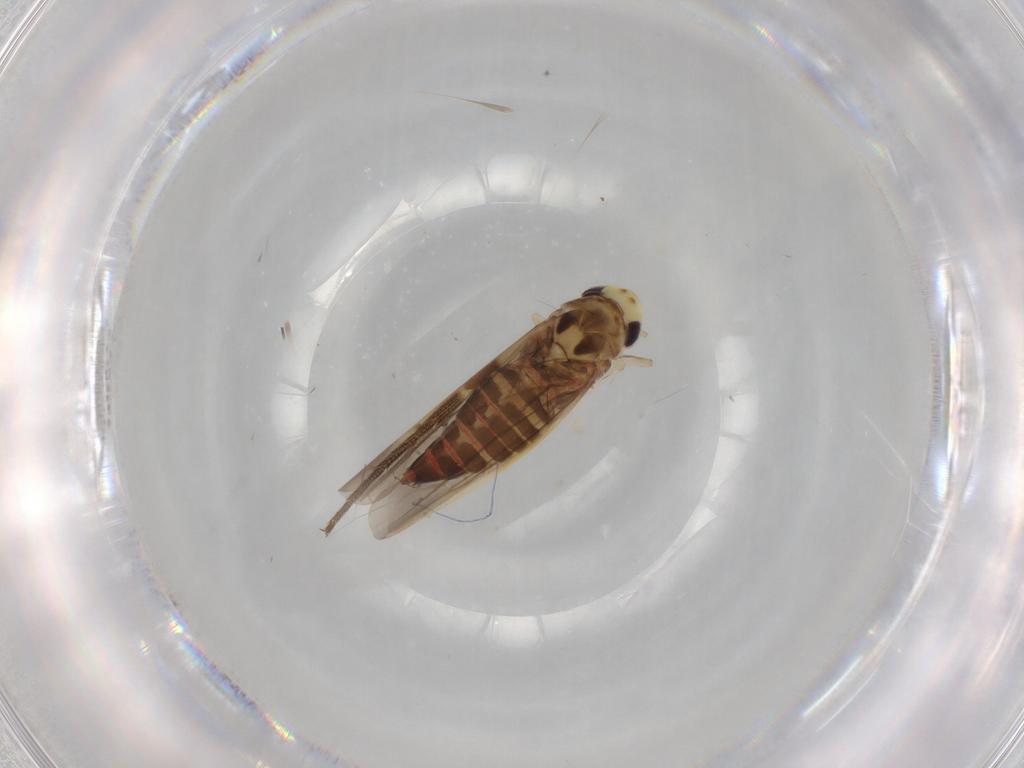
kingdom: Animalia
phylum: Arthropoda
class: Insecta
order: Hemiptera
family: Cicadellidae
